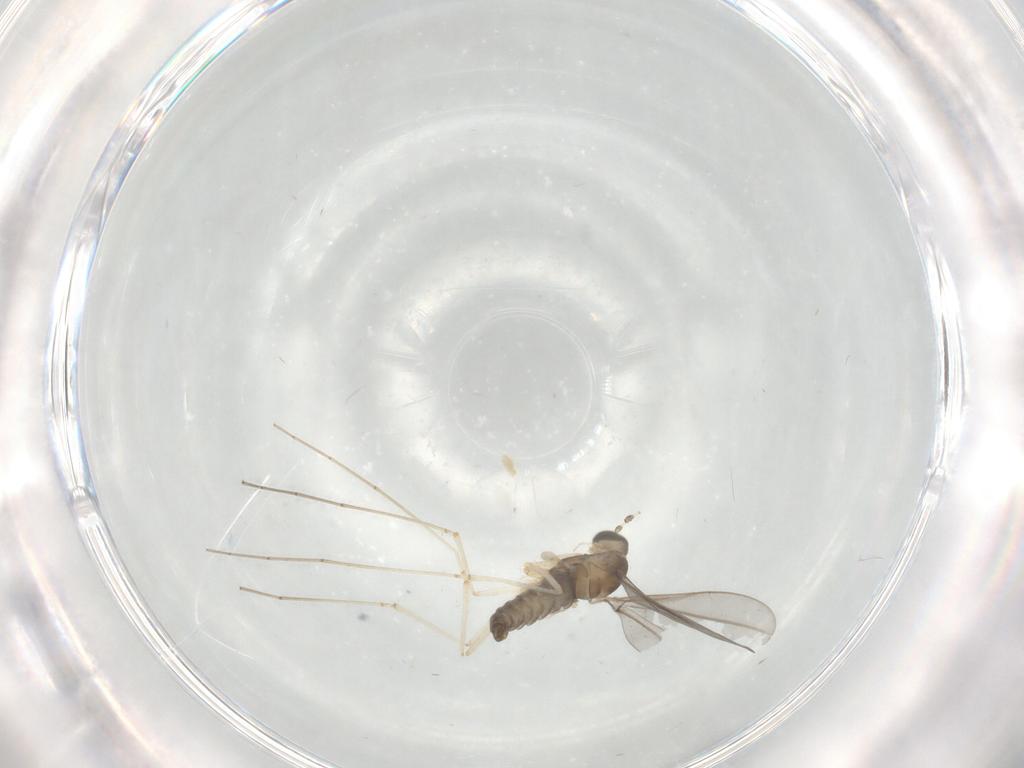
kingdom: Animalia
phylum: Arthropoda
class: Insecta
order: Diptera
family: Cecidomyiidae
